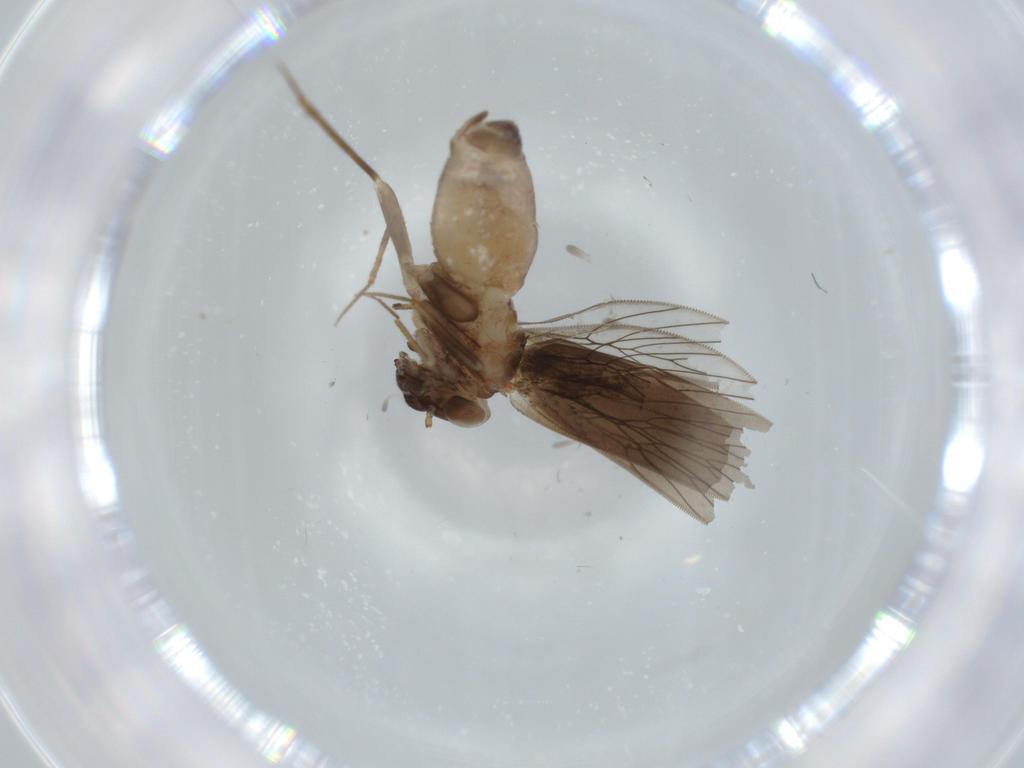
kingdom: Animalia
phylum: Arthropoda
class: Insecta
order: Psocodea
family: Lepidopsocidae
